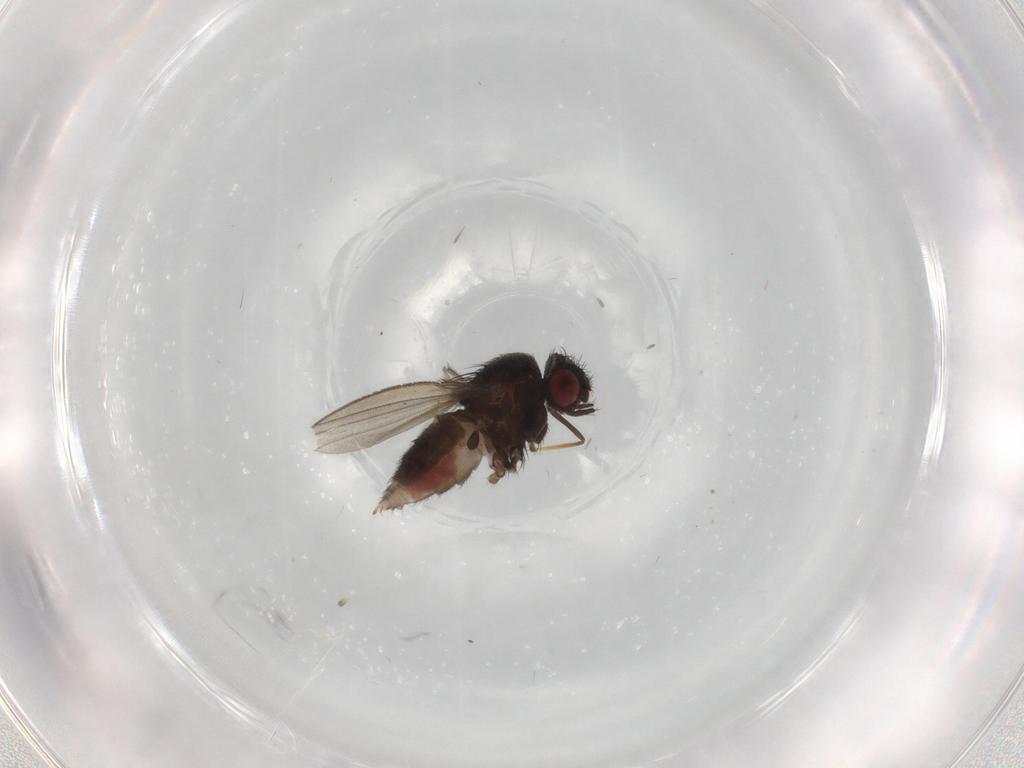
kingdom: Animalia
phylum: Arthropoda
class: Insecta
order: Diptera
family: Milichiidae
